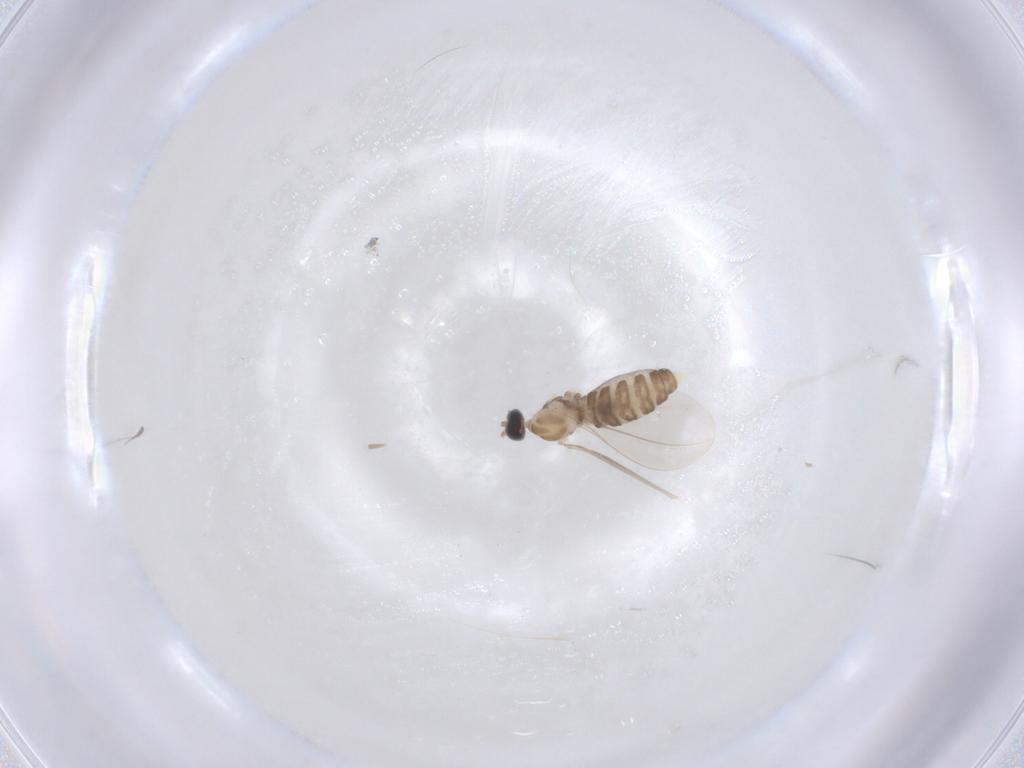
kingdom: Animalia
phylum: Arthropoda
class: Insecta
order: Diptera
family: Cecidomyiidae
